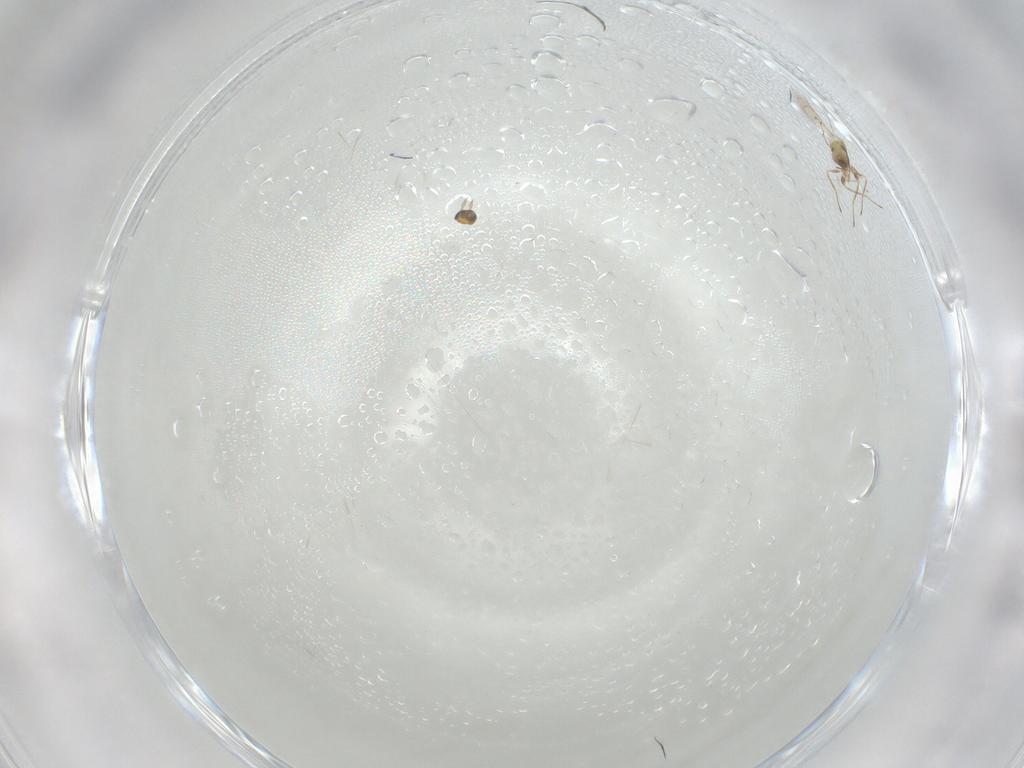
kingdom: Animalia
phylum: Arthropoda
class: Insecta
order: Hymenoptera
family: Trichogrammatidae
